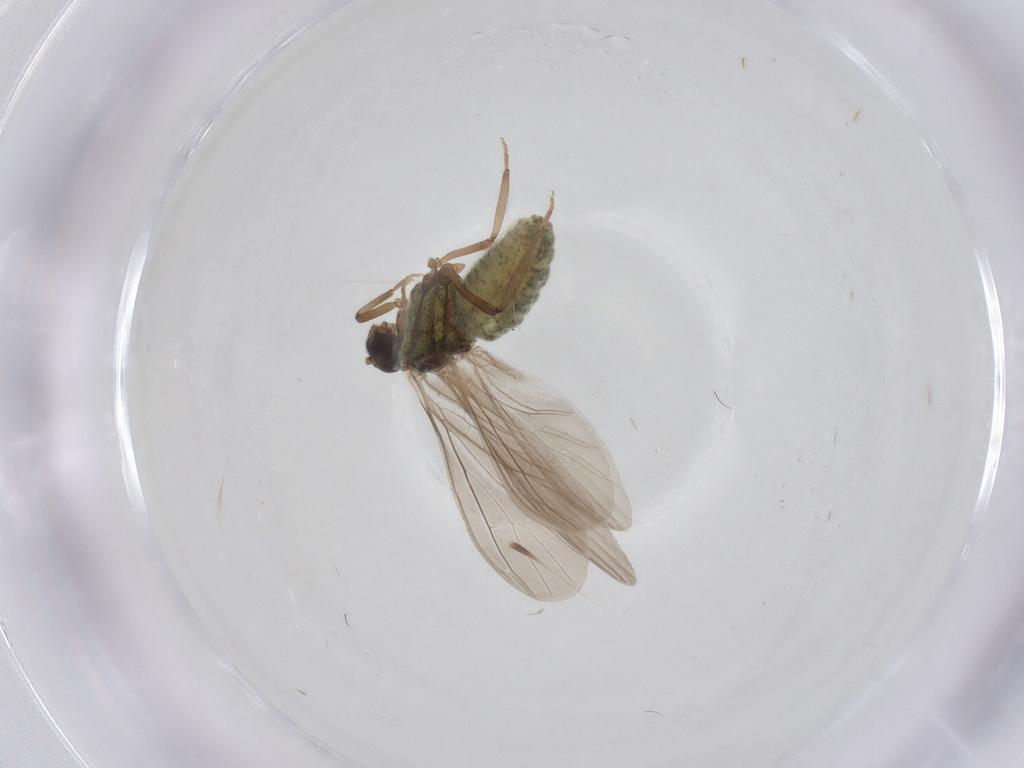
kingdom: Animalia
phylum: Arthropoda
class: Insecta
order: Neuroptera
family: Coniopterygidae
